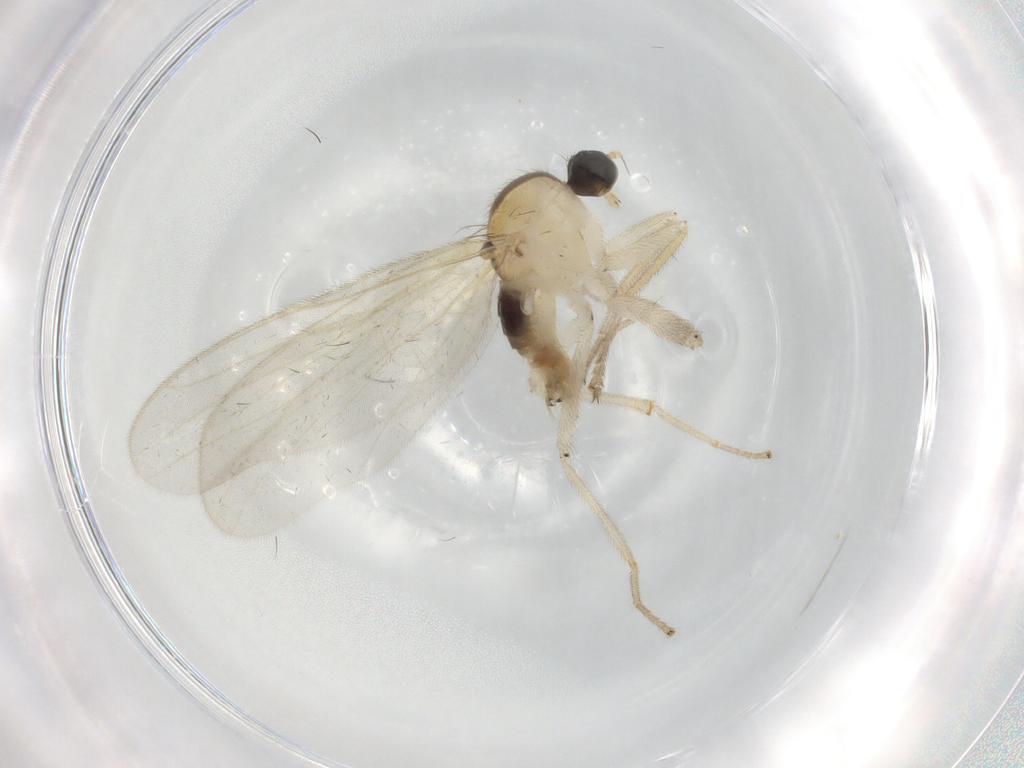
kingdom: Animalia
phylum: Arthropoda
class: Insecta
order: Diptera
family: Hybotidae
